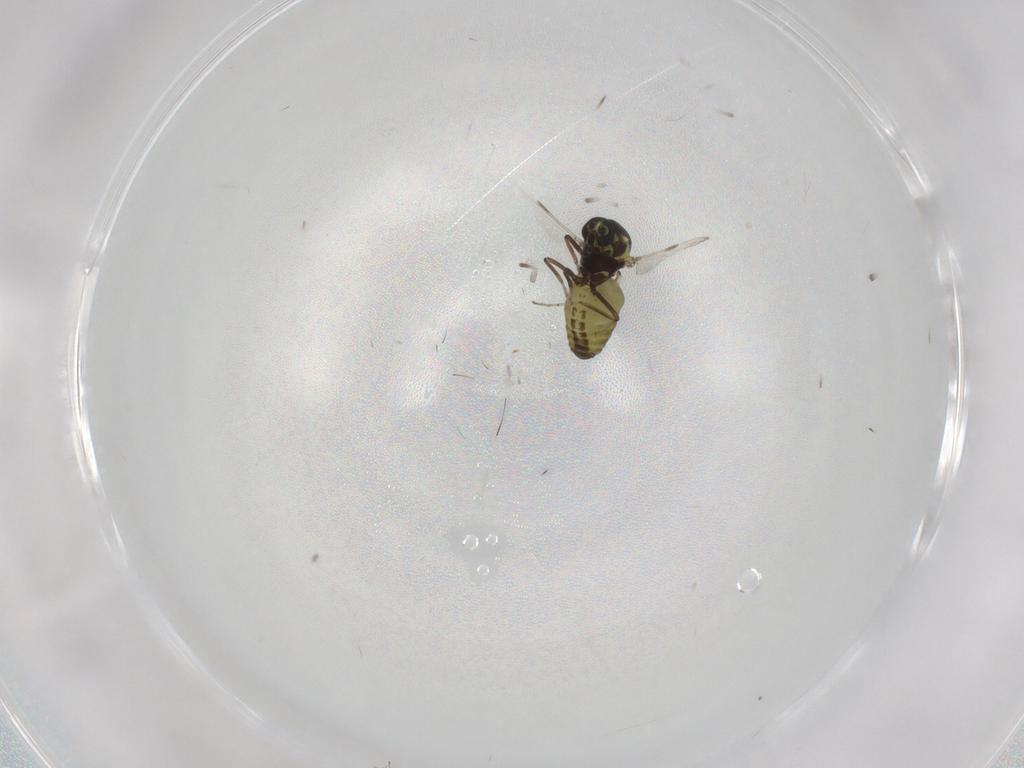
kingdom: Animalia
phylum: Arthropoda
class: Insecta
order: Diptera
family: Ceratopogonidae
